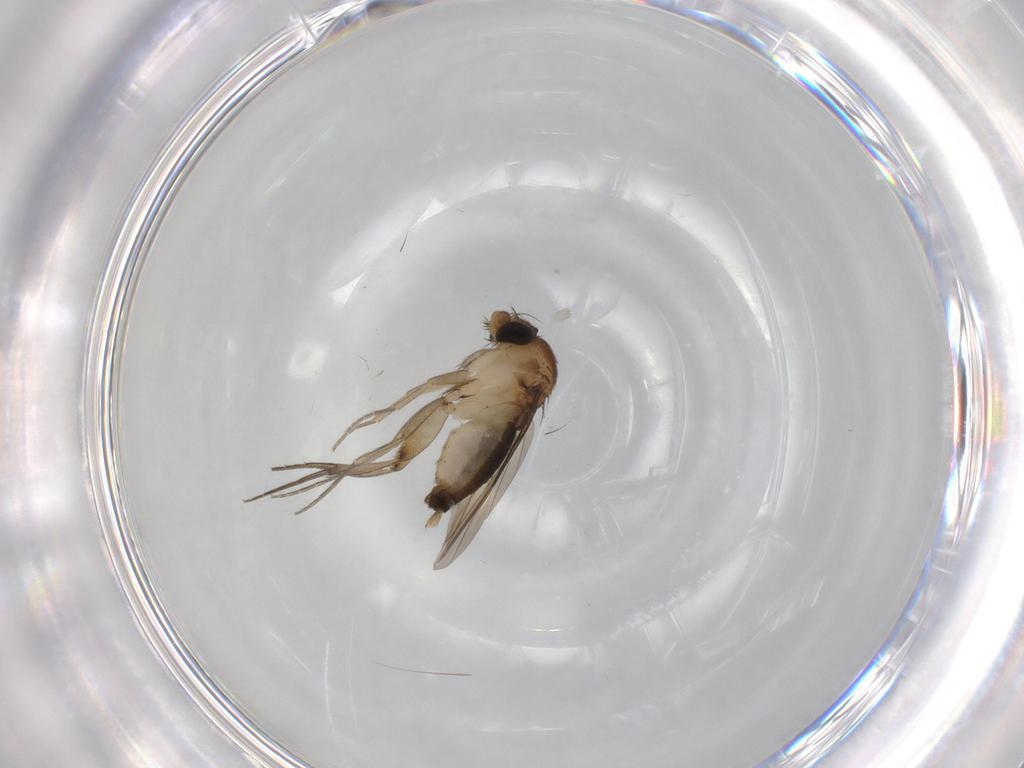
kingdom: Animalia
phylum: Arthropoda
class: Insecta
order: Diptera
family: Phoridae
